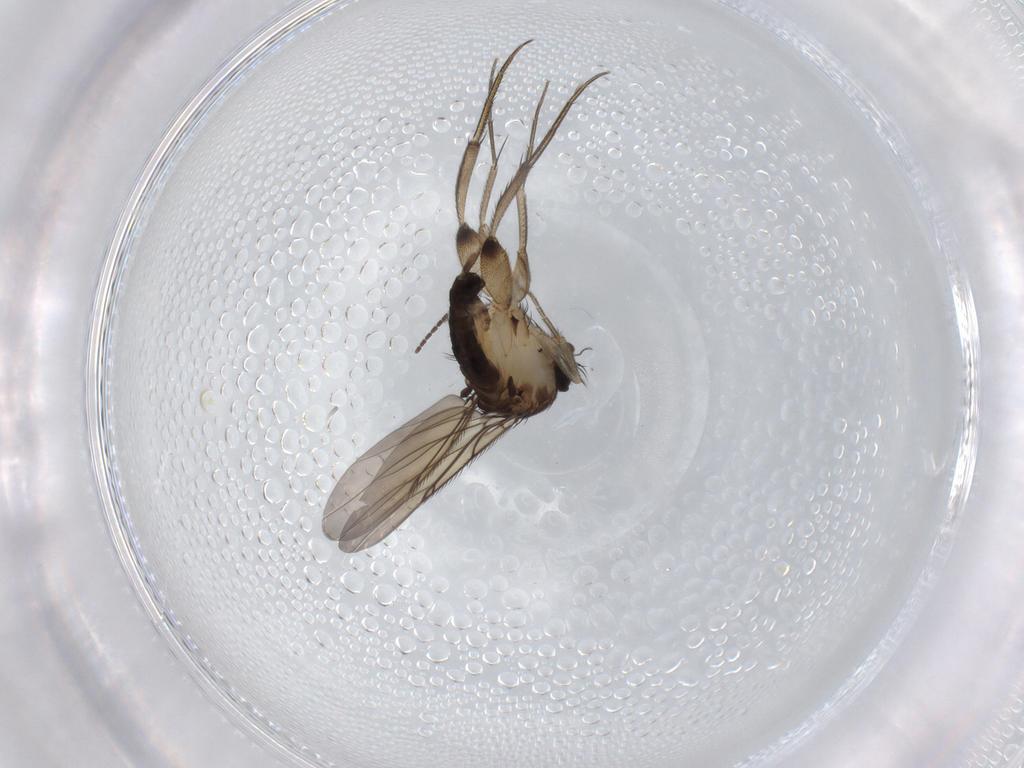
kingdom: Animalia
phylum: Arthropoda
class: Insecta
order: Diptera
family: Sciaridae
